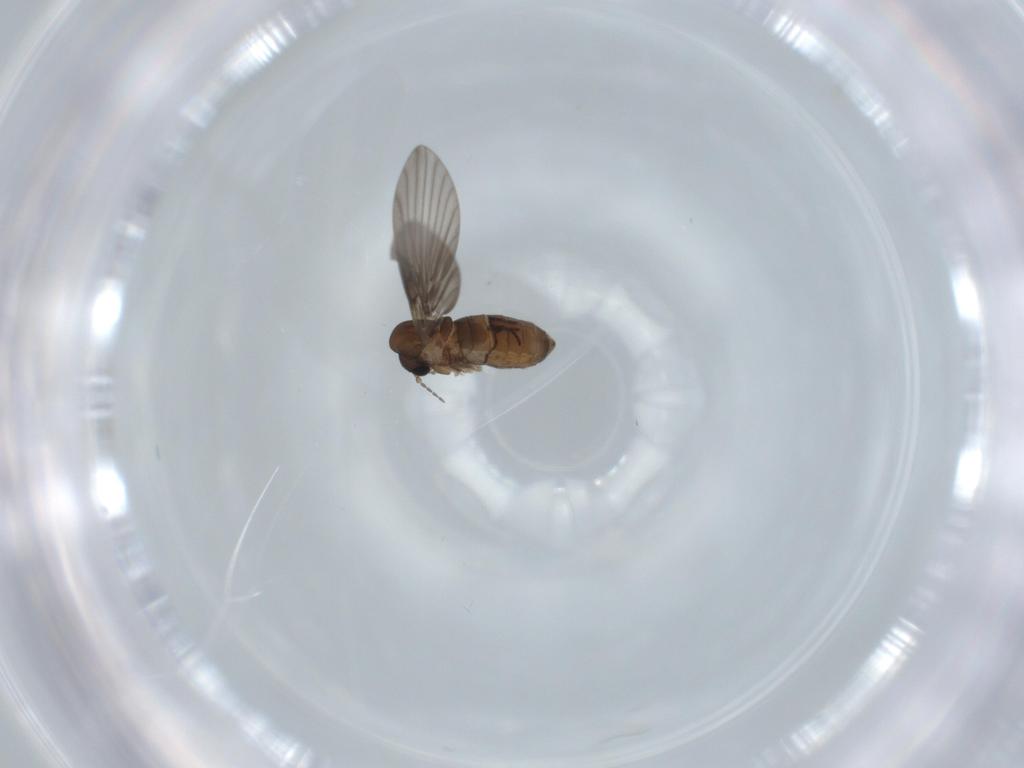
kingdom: Animalia
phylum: Arthropoda
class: Insecta
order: Diptera
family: Psychodidae
